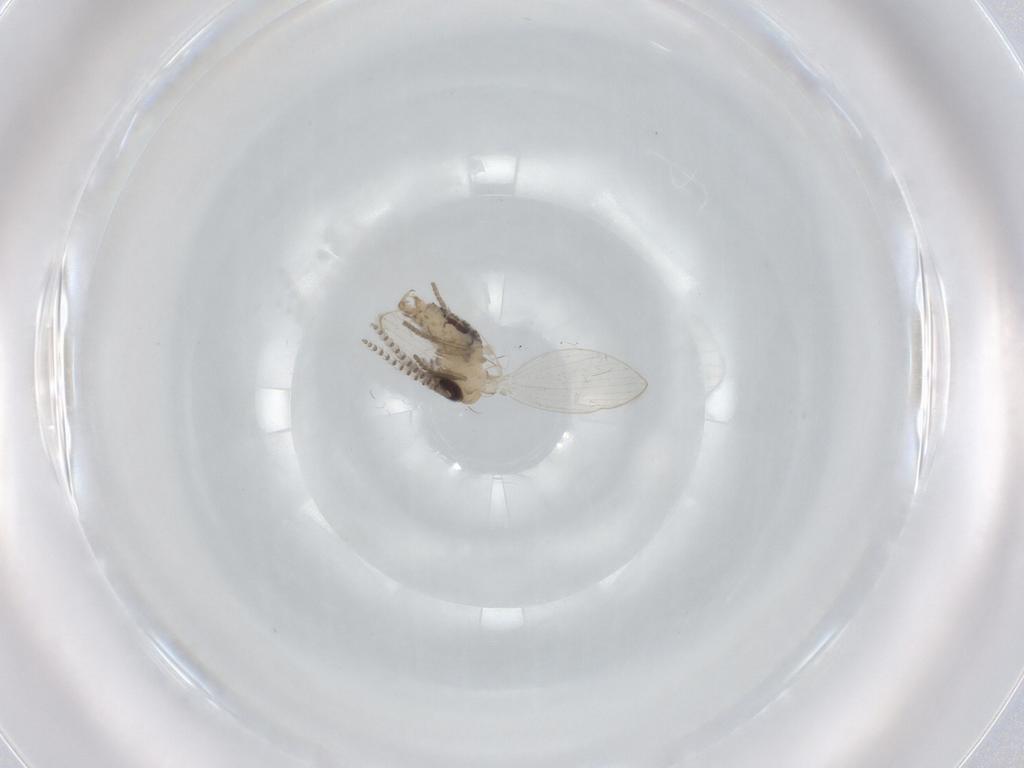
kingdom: Animalia
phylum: Arthropoda
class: Insecta
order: Diptera
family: Psychodidae
